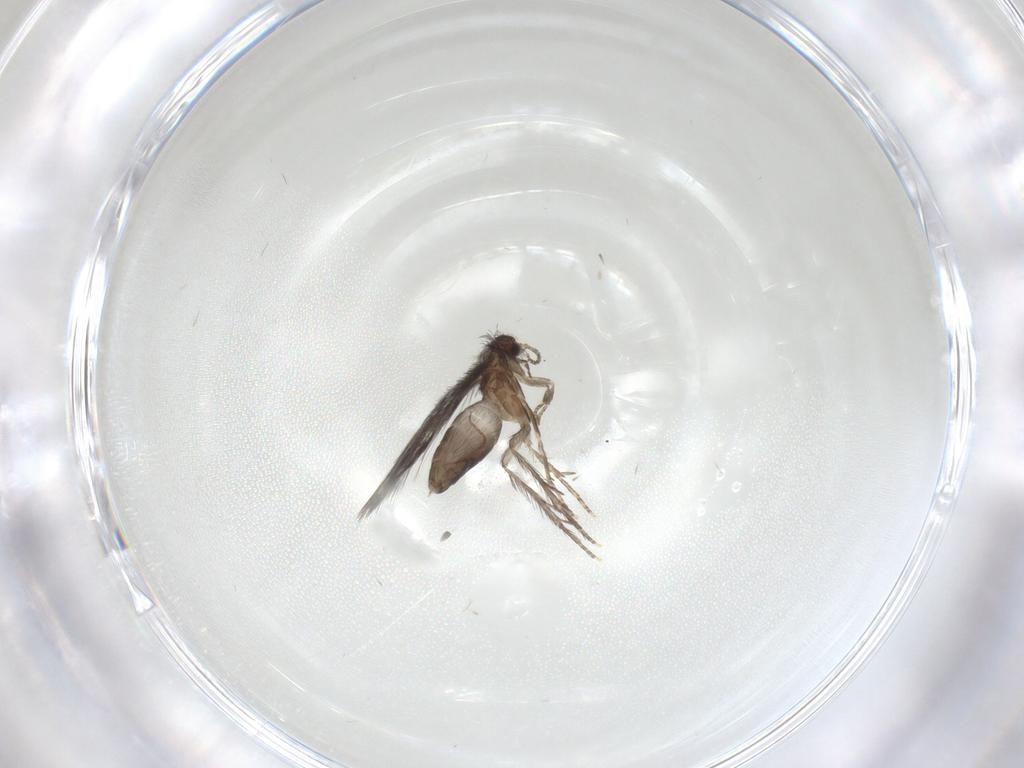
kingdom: Animalia
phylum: Arthropoda
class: Insecta
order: Trichoptera
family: Hydroptilidae
